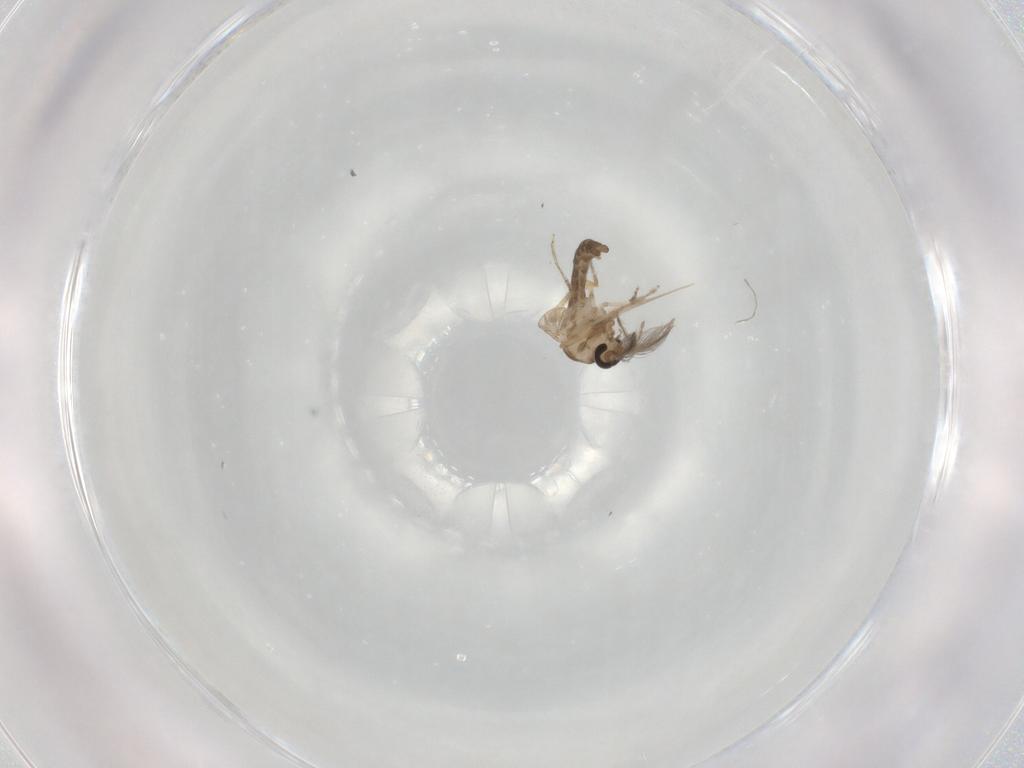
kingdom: Animalia
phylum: Arthropoda
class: Insecta
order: Diptera
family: Ceratopogonidae
